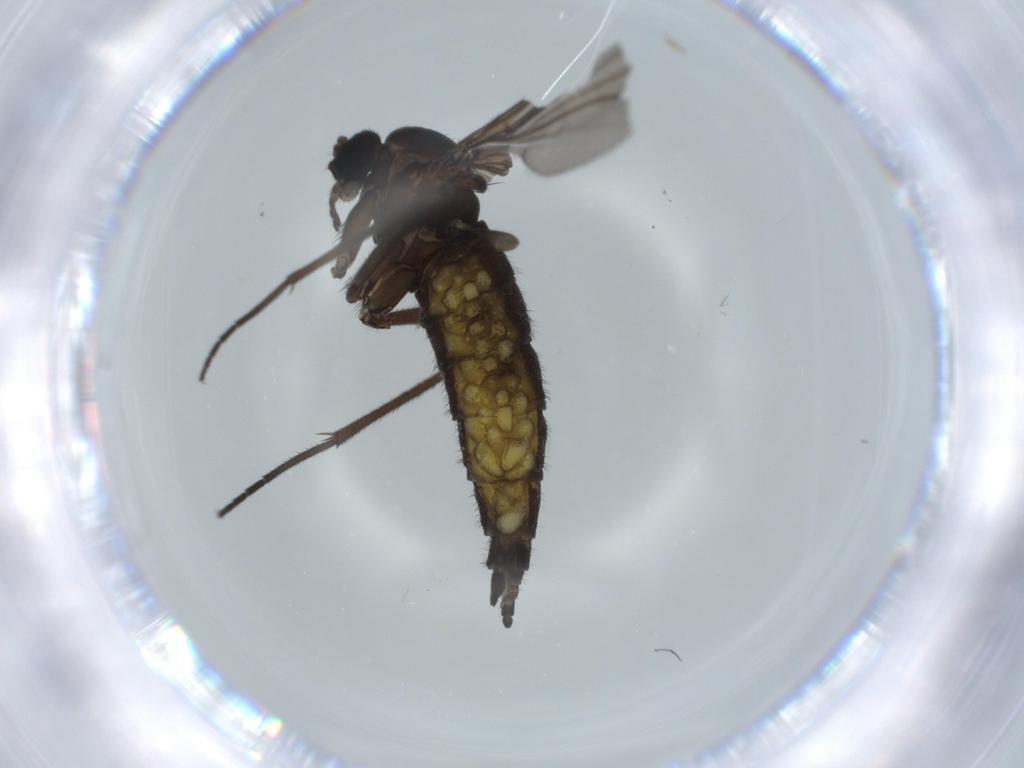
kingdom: Animalia
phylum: Arthropoda
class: Insecta
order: Diptera
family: Sciaridae
